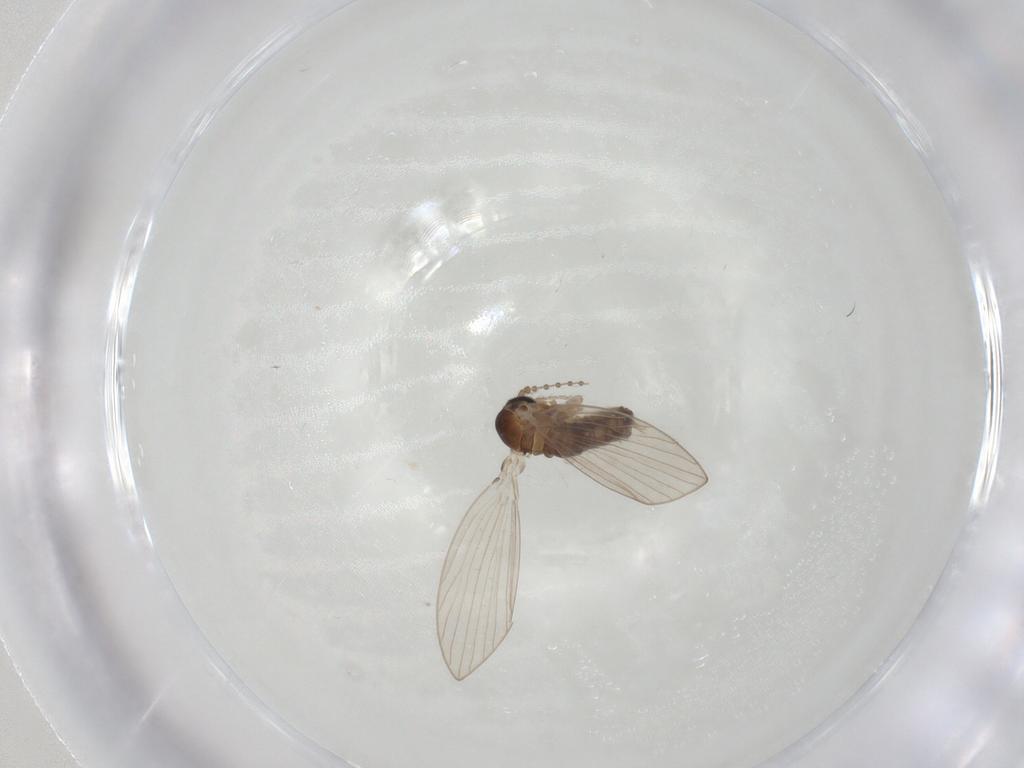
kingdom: Animalia
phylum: Arthropoda
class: Insecta
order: Diptera
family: Psychodidae
